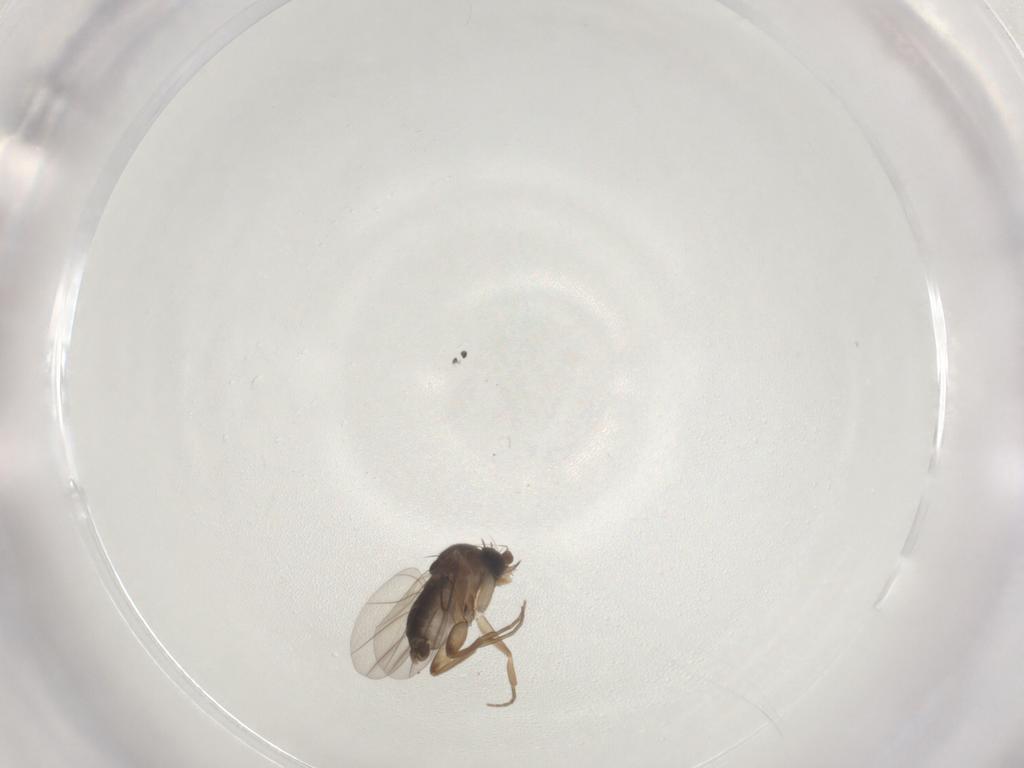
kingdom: Animalia
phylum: Arthropoda
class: Insecta
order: Diptera
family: Phoridae
